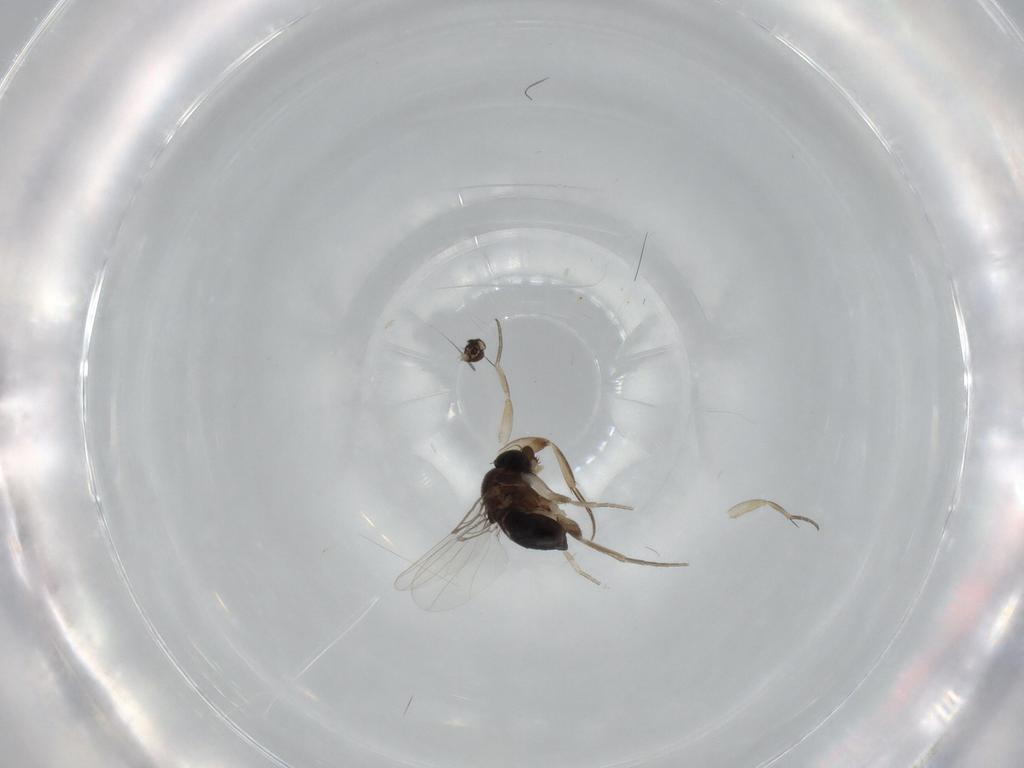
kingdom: Animalia
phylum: Arthropoda
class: Insecta
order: Diptera
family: Phoridae
